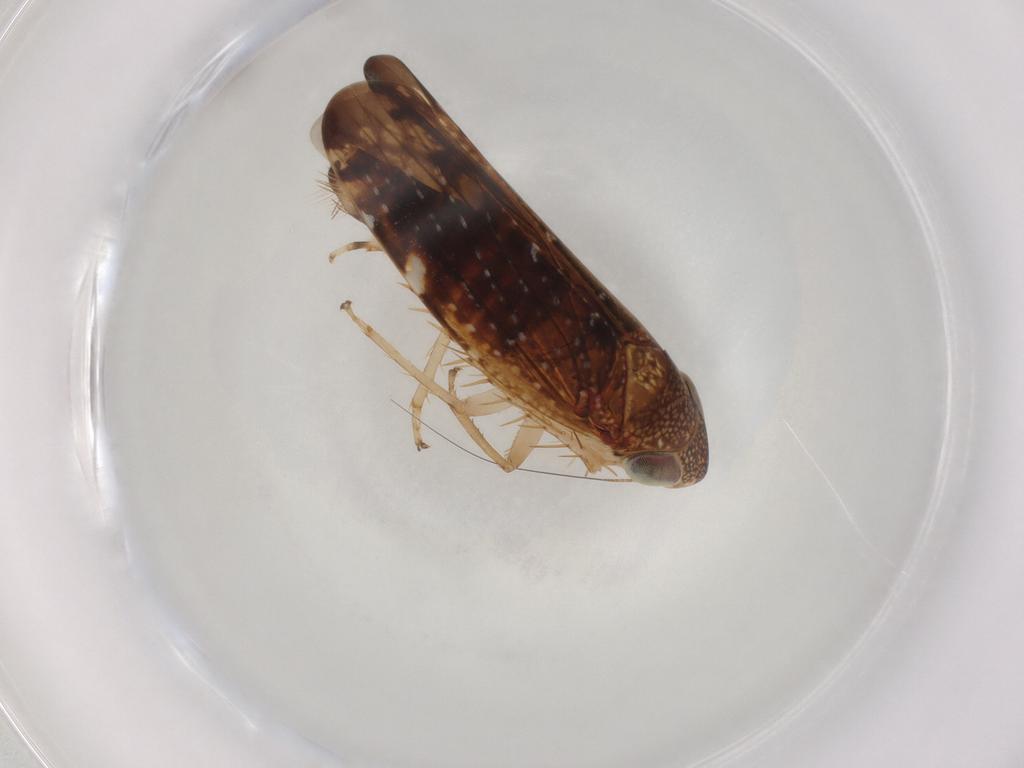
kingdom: Animalia
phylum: Arthropoda
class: Insecta
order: Hemiptera
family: Cicadellidae
